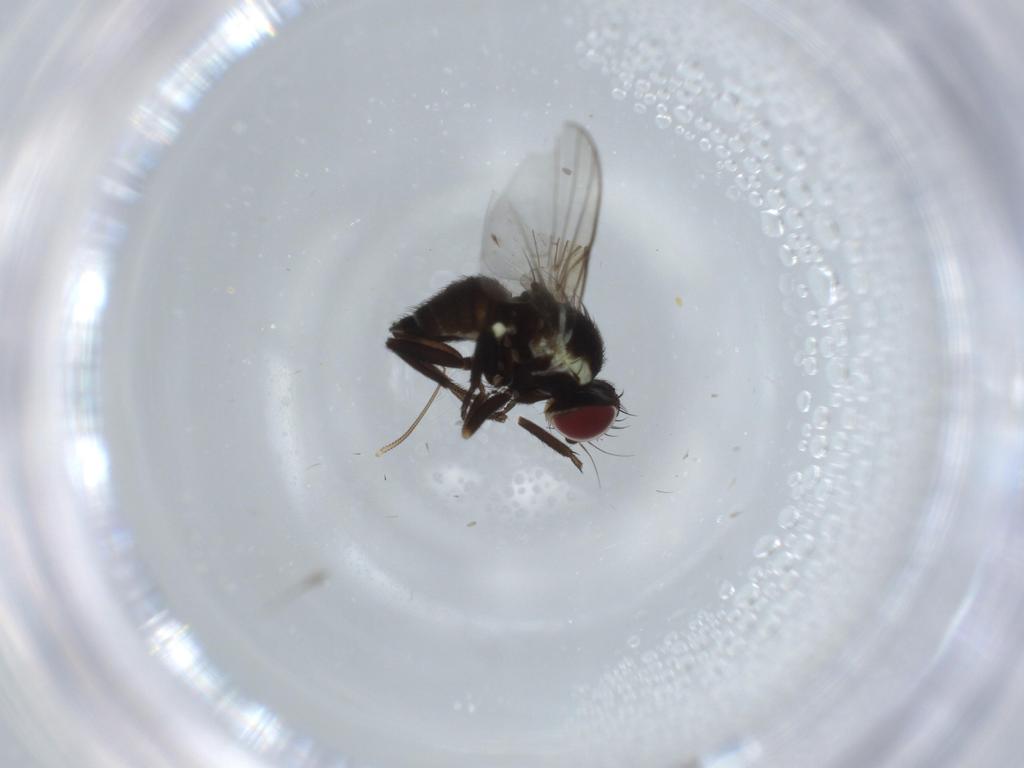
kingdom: Animalia
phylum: Arthropoda
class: Insecta
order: Diptera
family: Agromyzidae
